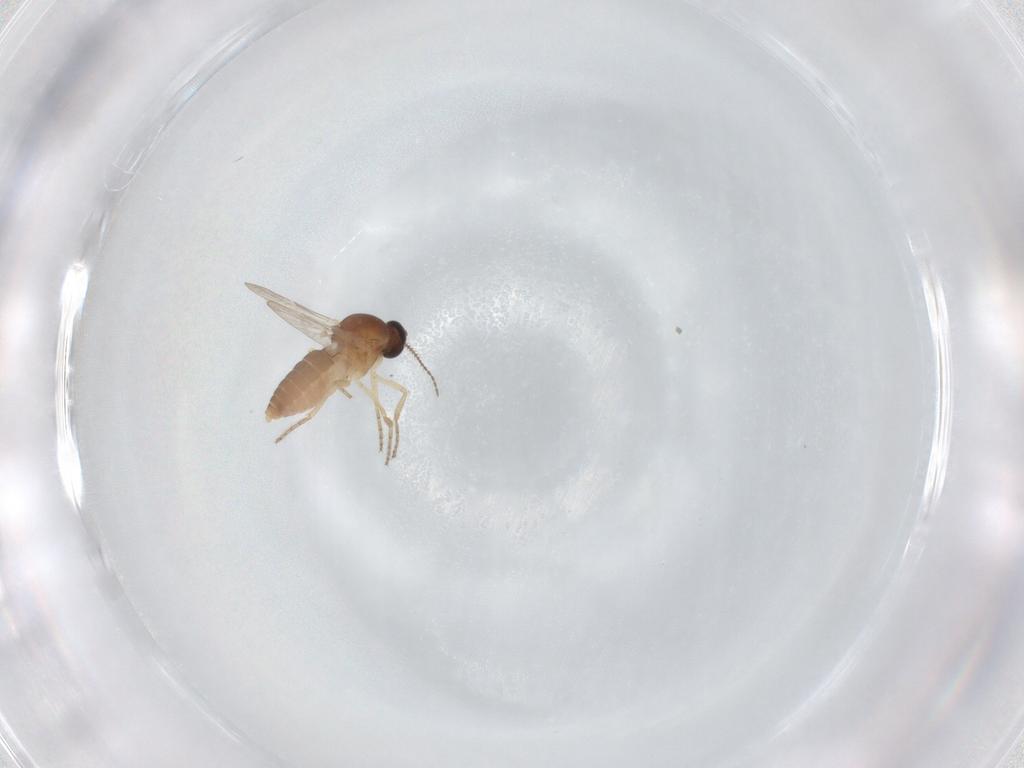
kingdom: Animalia
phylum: Arthropoda
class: Insecta
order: Diptera
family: Ceratopogonidae
